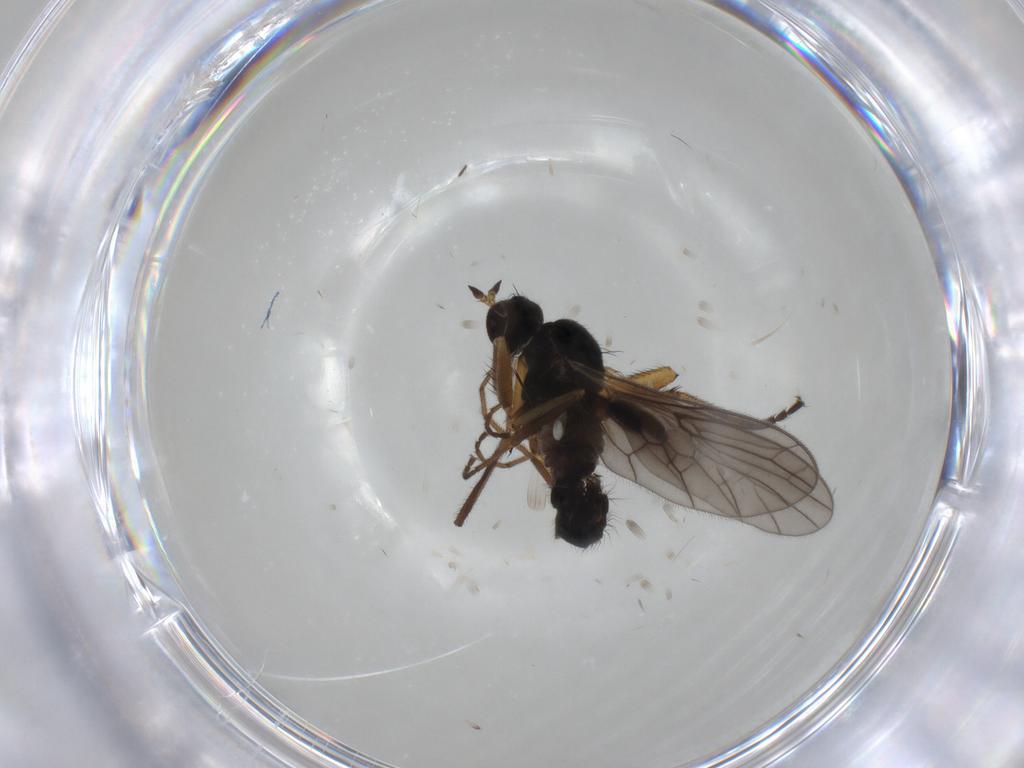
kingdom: Animalia
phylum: Arthropoda
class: Insecta
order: Diptera
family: Empididae
